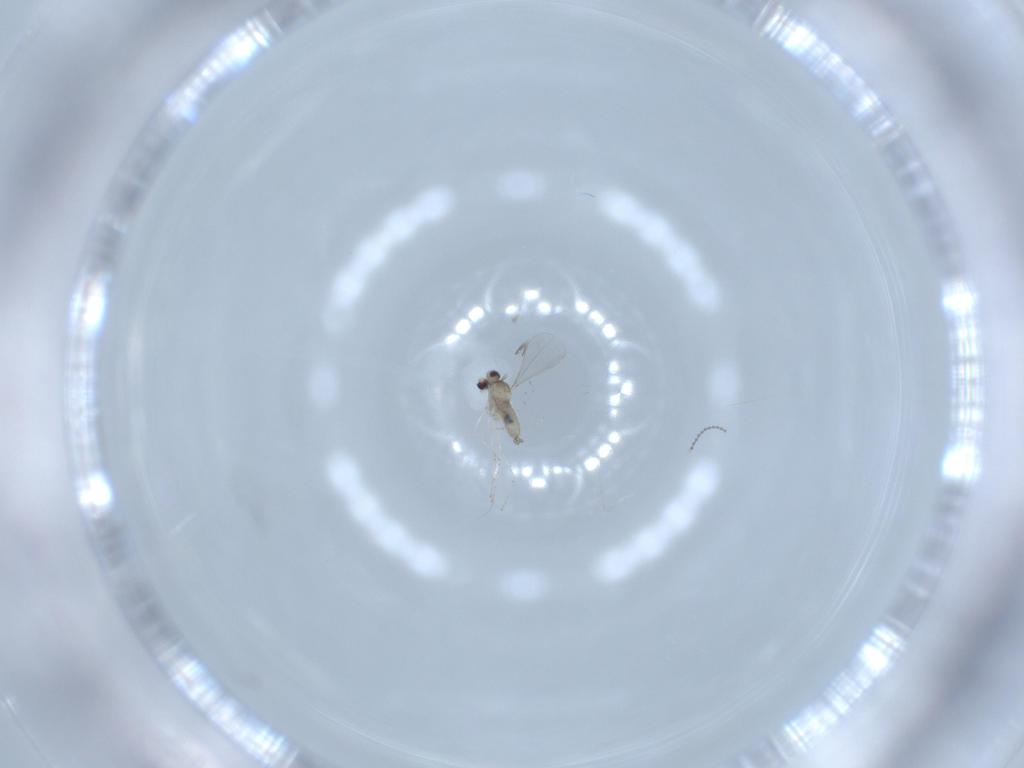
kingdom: Animalia
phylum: Arthropoda
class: Insecta
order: Diptera
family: Cecidomyiidae
